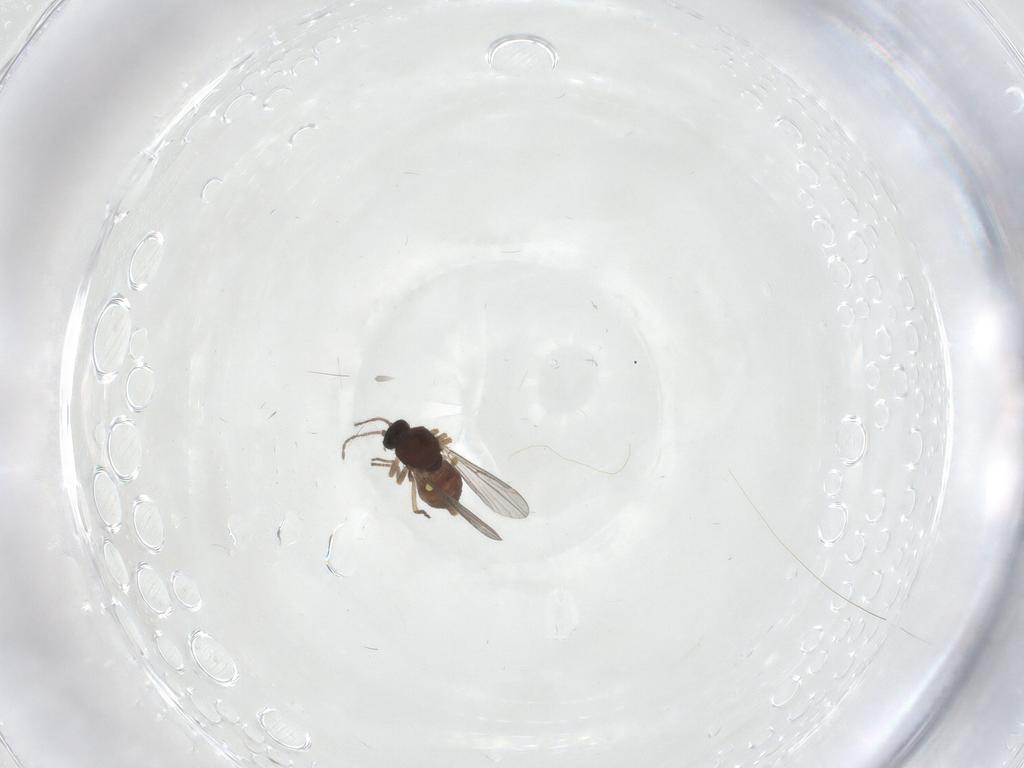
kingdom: Animalia
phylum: Arthropoda
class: Insecta
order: Diptera
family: Ceratopogonidae
